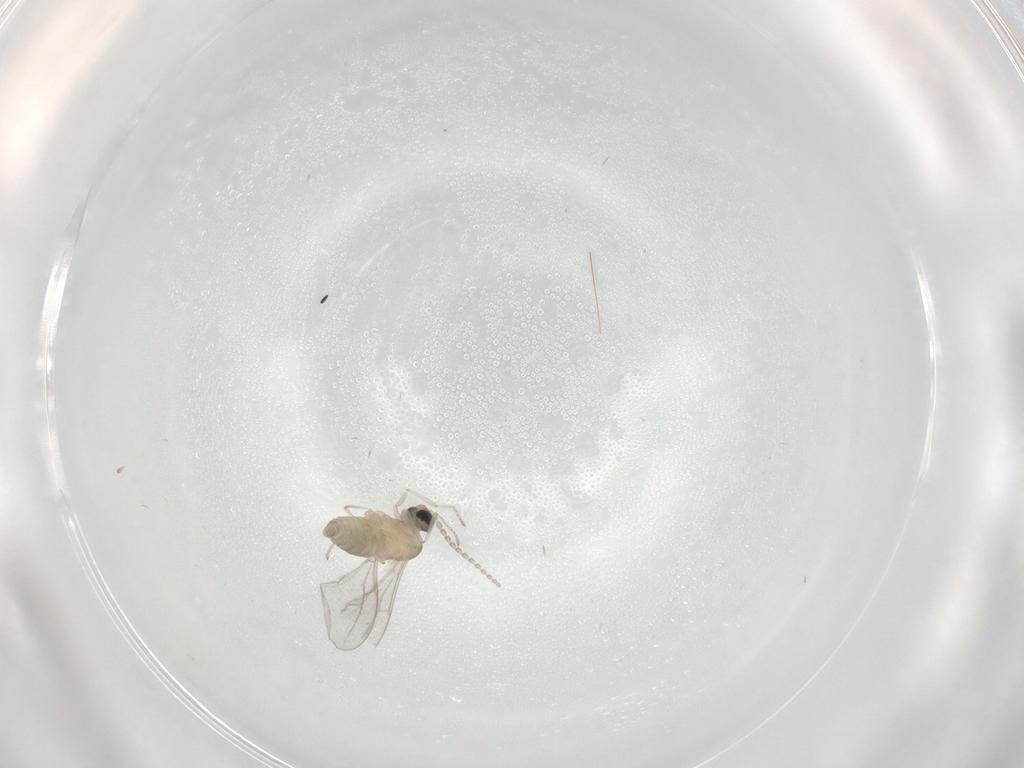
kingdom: Animalia
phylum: Arthropoda
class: Insecta
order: Diptera
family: Cecidomyiidae
